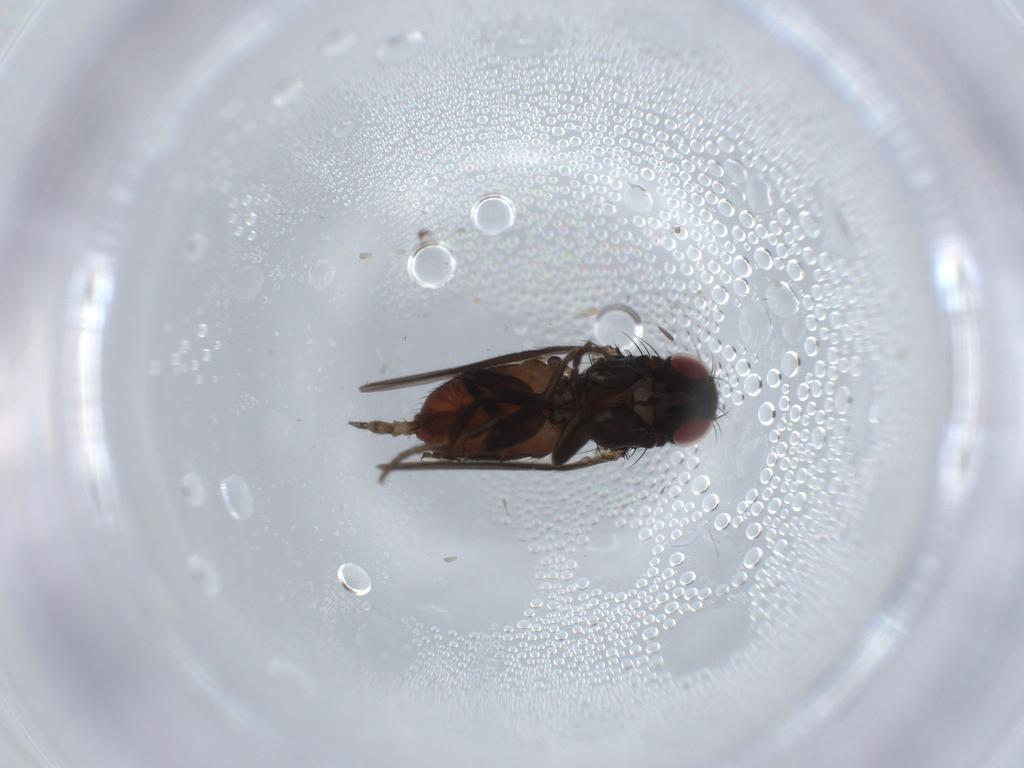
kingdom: Animalia
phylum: Arthropoda
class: Insecta
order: Diptera
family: Milichiidae
